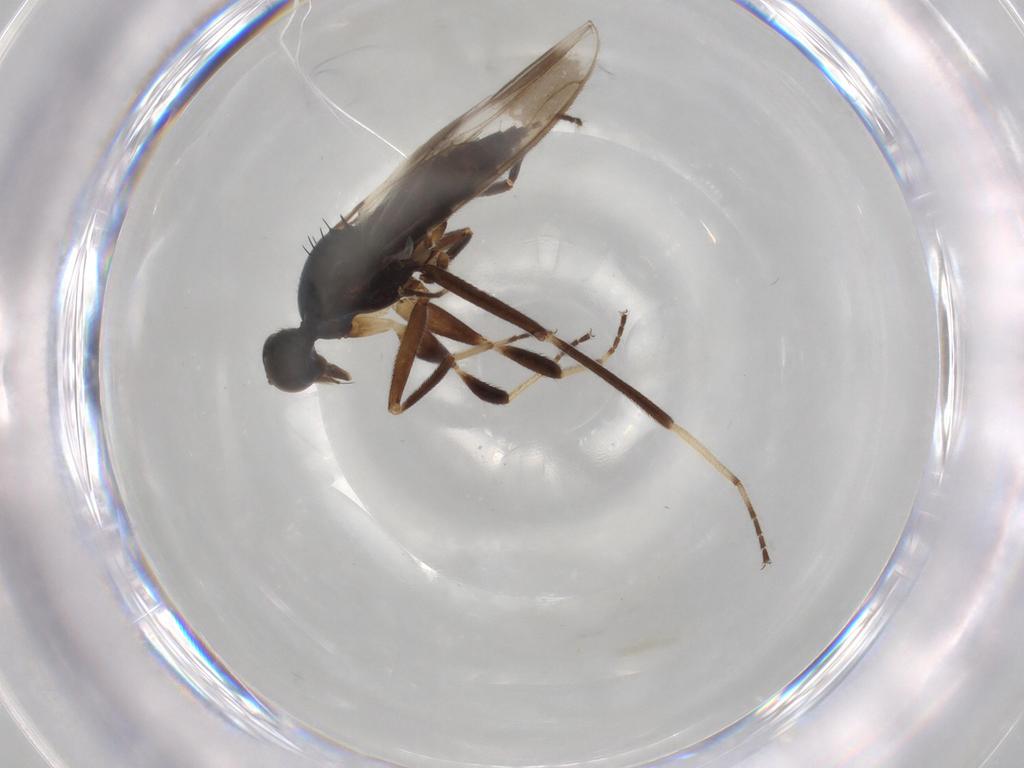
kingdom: Animalia
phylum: Arthropoda
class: Insecta
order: Diptera
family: Hybotidae
